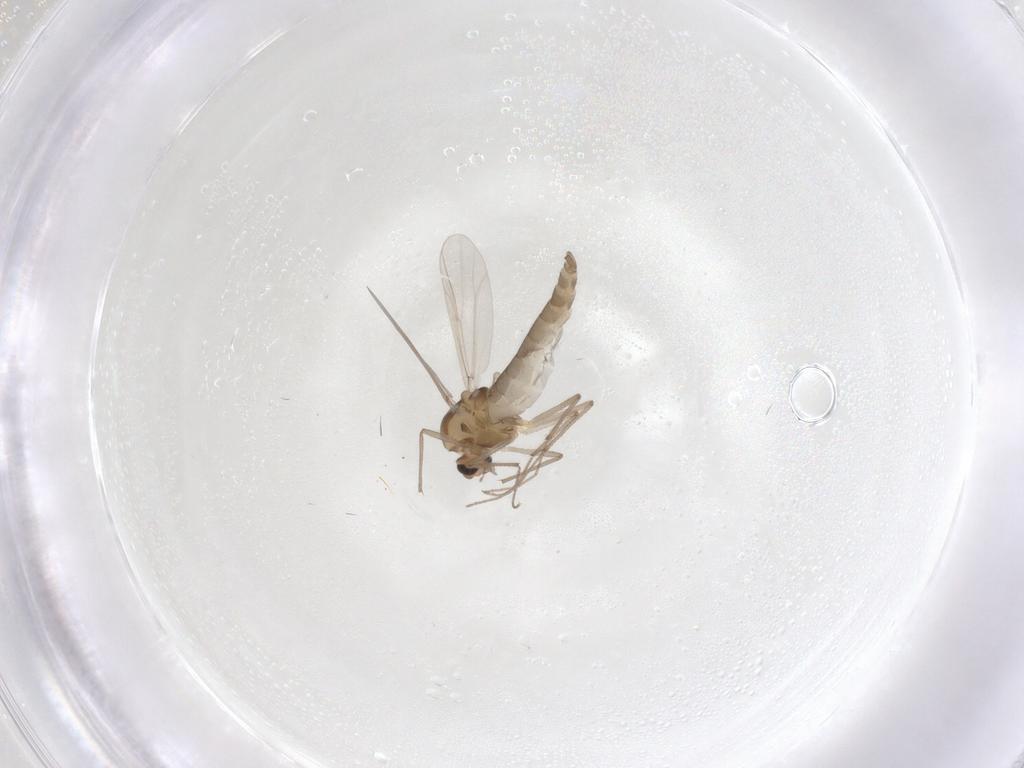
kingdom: Animalia
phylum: Arthropoda
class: Insecta
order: Diptera
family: Chironomidae
